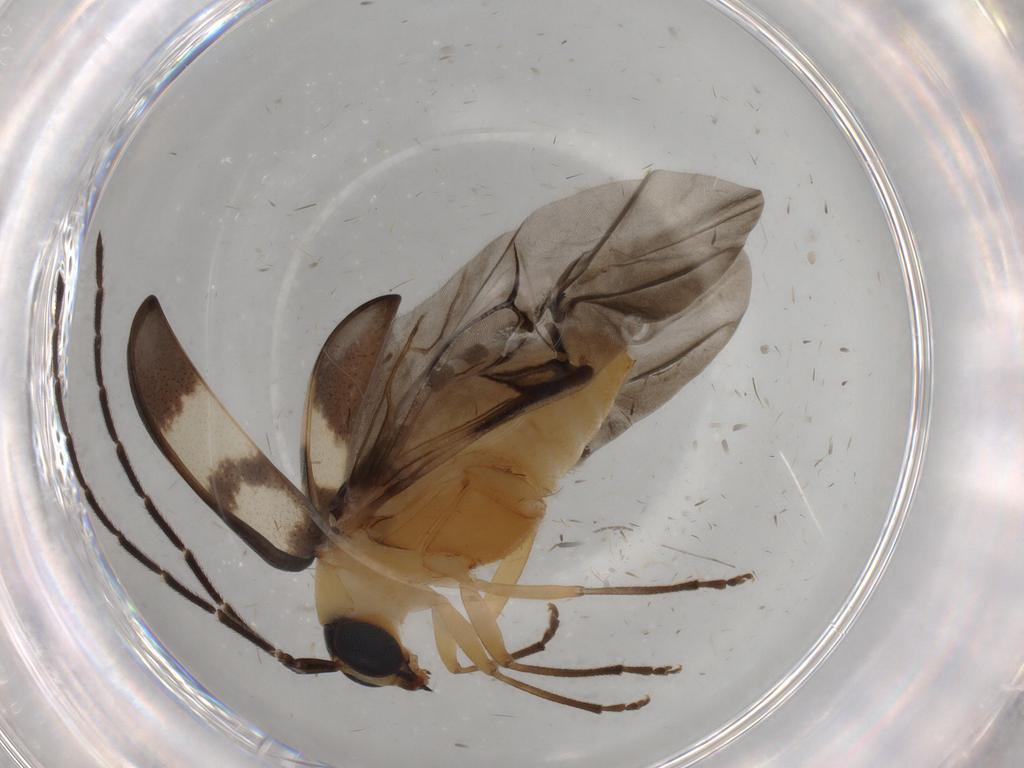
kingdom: Animalia
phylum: Arthropoda
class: Insecta
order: Coleoptera
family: Chrysomelidae
